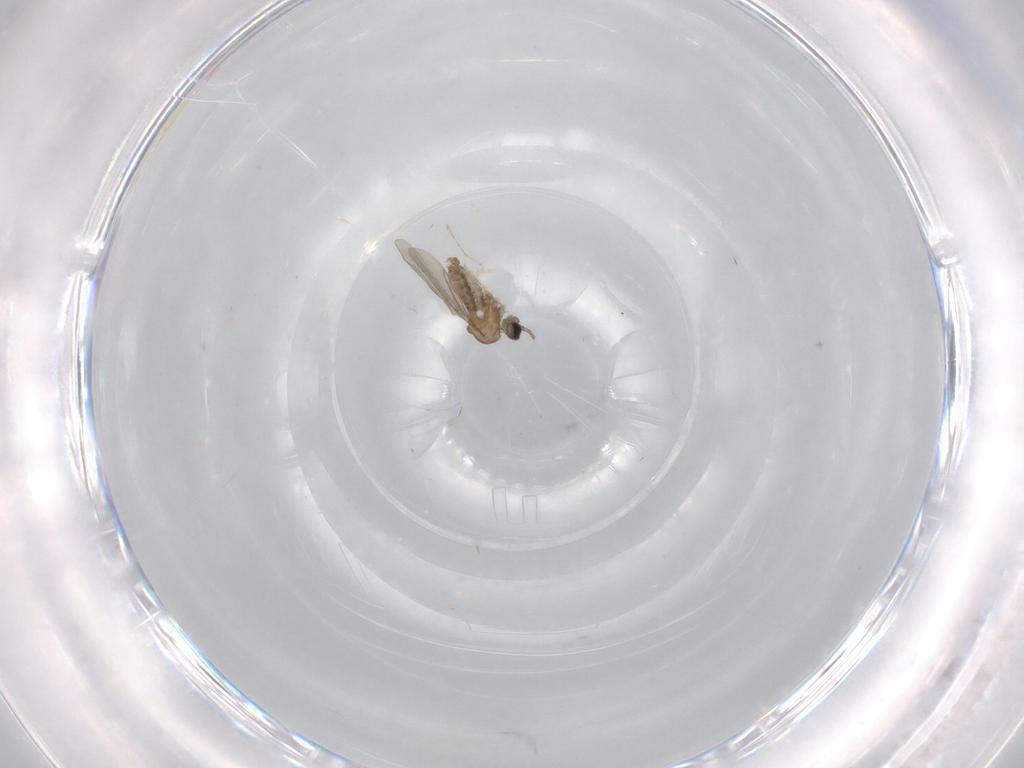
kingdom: Animalia
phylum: Arthropoda
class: Insecta
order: Diptera
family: Cecidomyiidae
